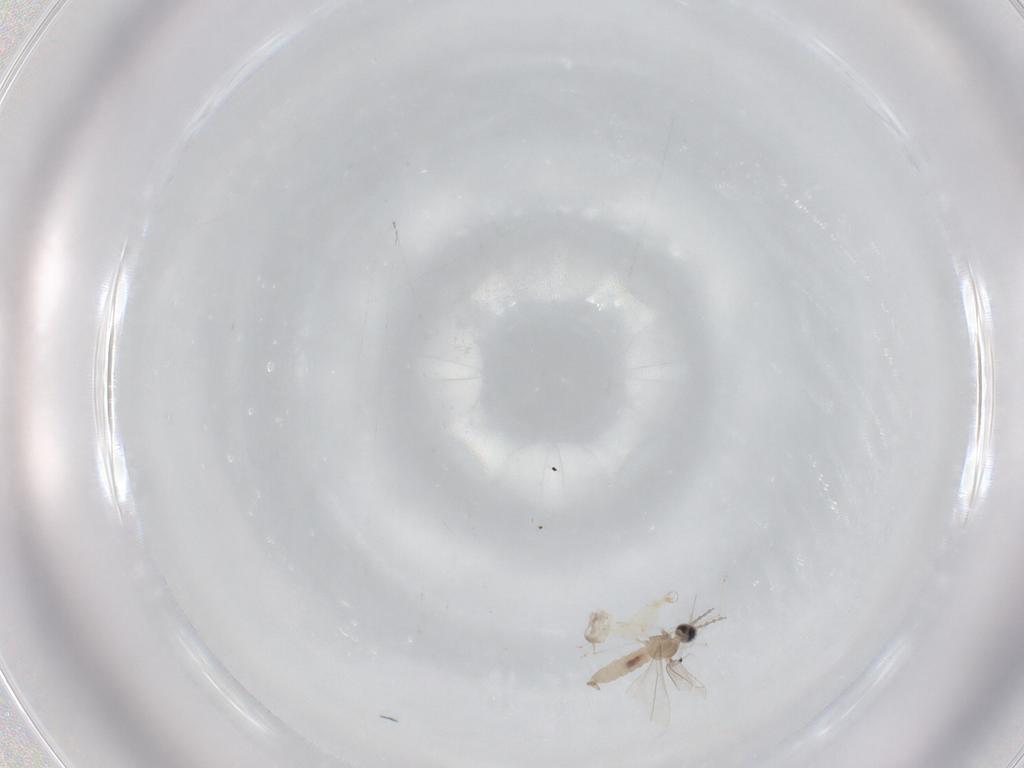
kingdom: Animalia
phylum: Arthropoda
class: Insecta
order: Diptera
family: Cecidomyiidae
